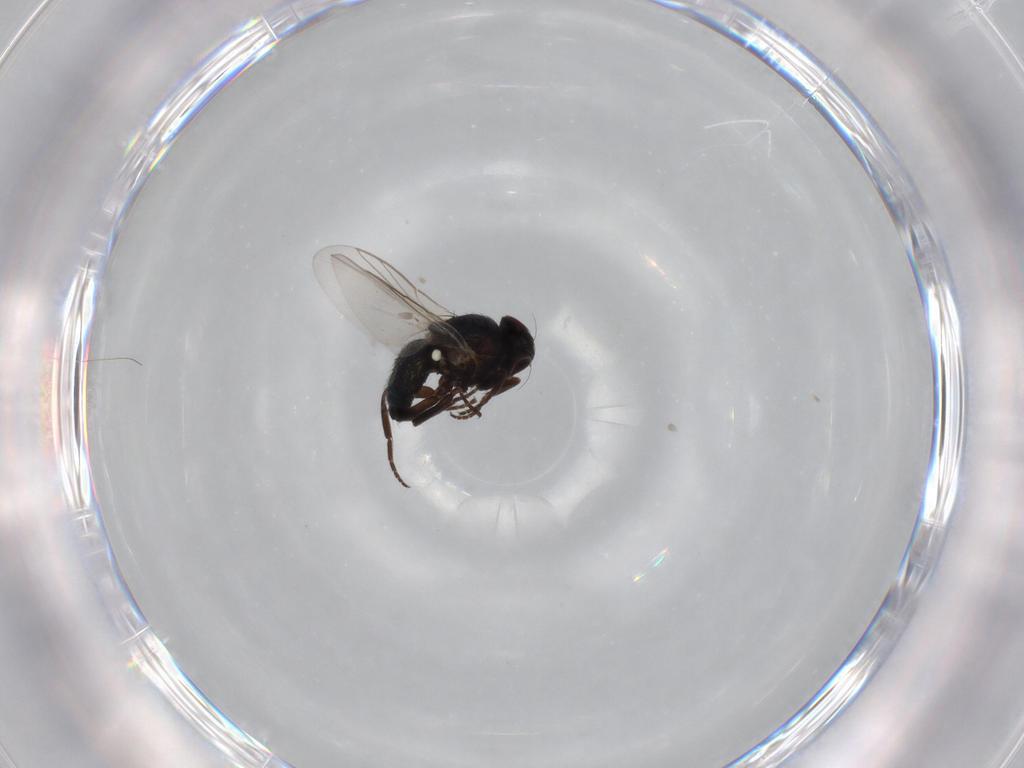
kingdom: Animalia
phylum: Arthropoda
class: Insecta
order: Diptera
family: Agromyzidae
